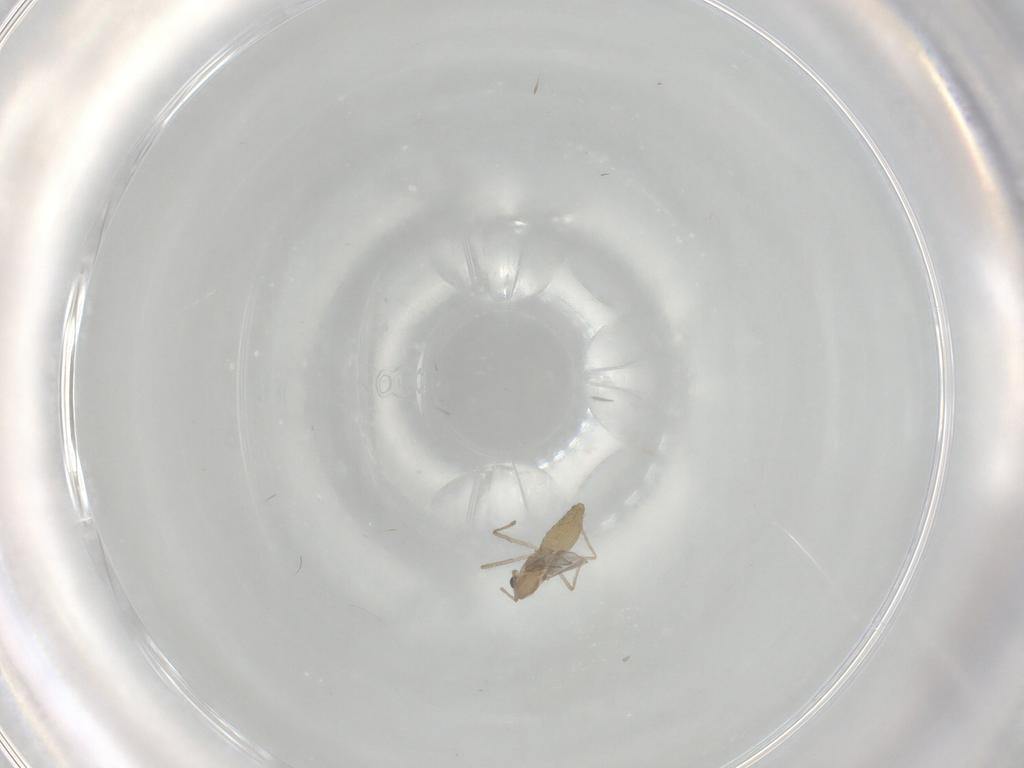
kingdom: Animalia
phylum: Arthropoda
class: Insecta
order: Diptera
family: Chironomidae
